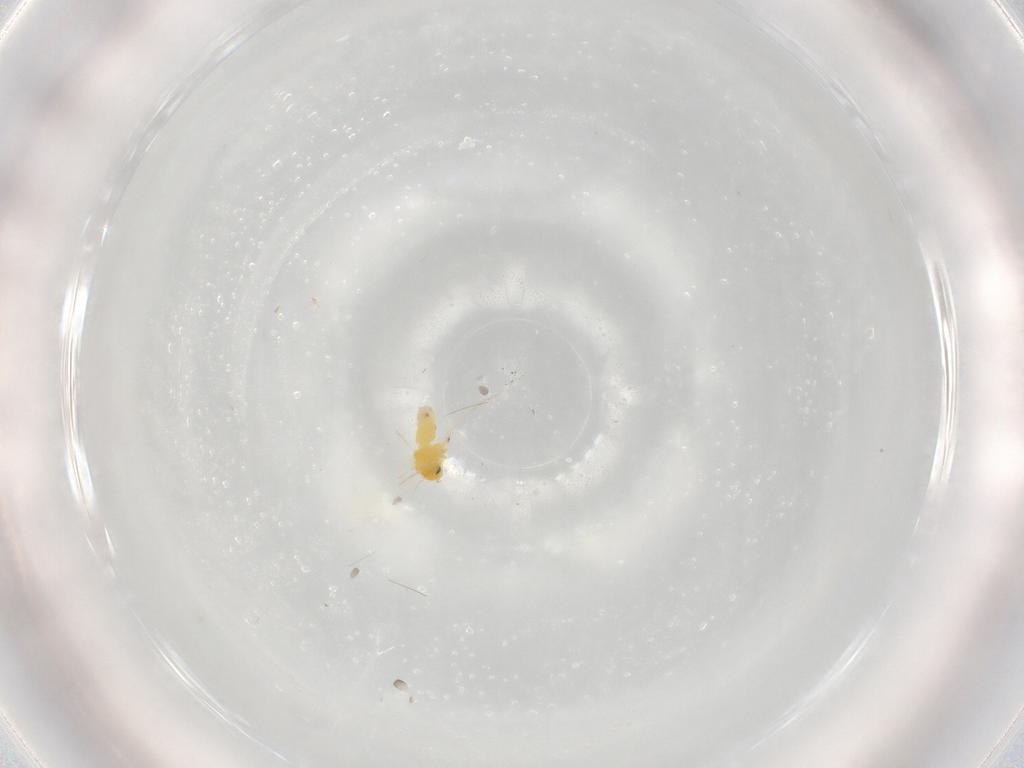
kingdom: Animalia
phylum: Arthropoda
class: Insecta
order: Hemiptera
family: Aleyrodidae
